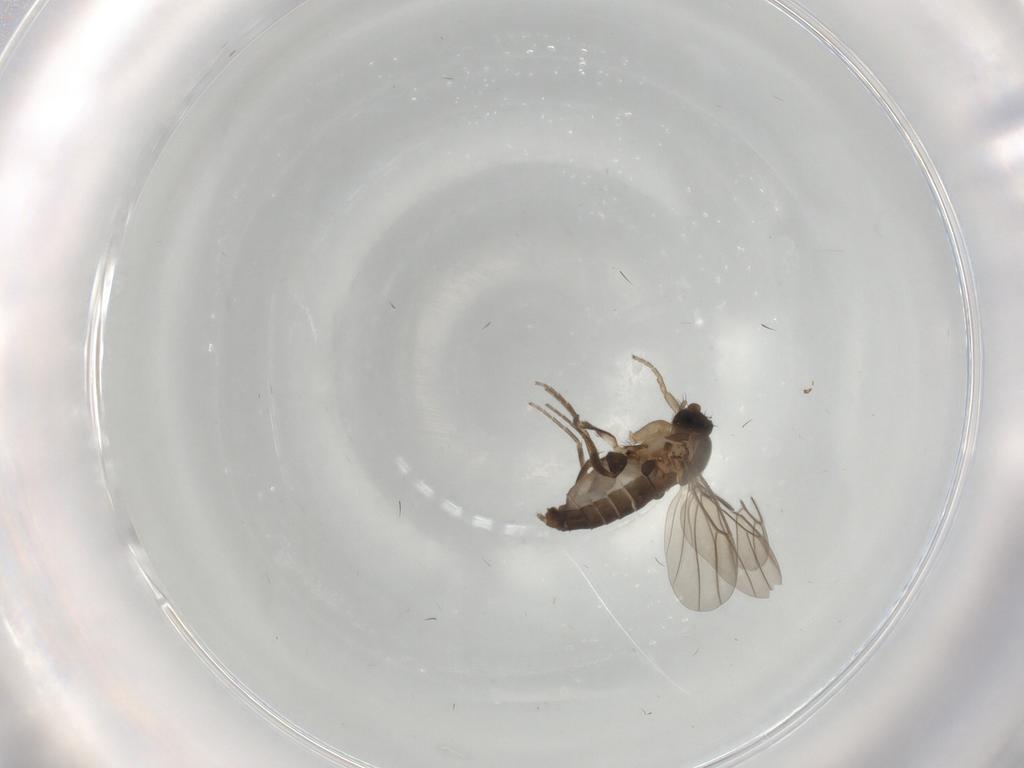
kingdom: Animalia
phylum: Arthropoda
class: Insecta
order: Diptera
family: Phoridae
